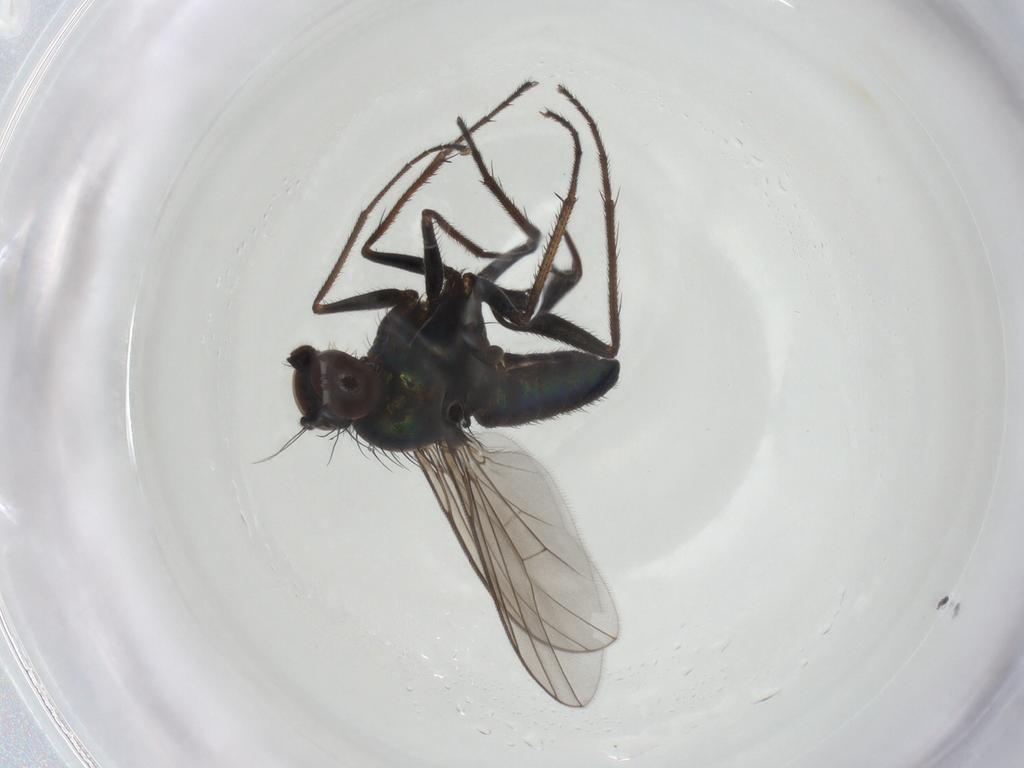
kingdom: Animalia
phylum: Arthropoda
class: Insecta
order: Diptera
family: Dolichopodidae
